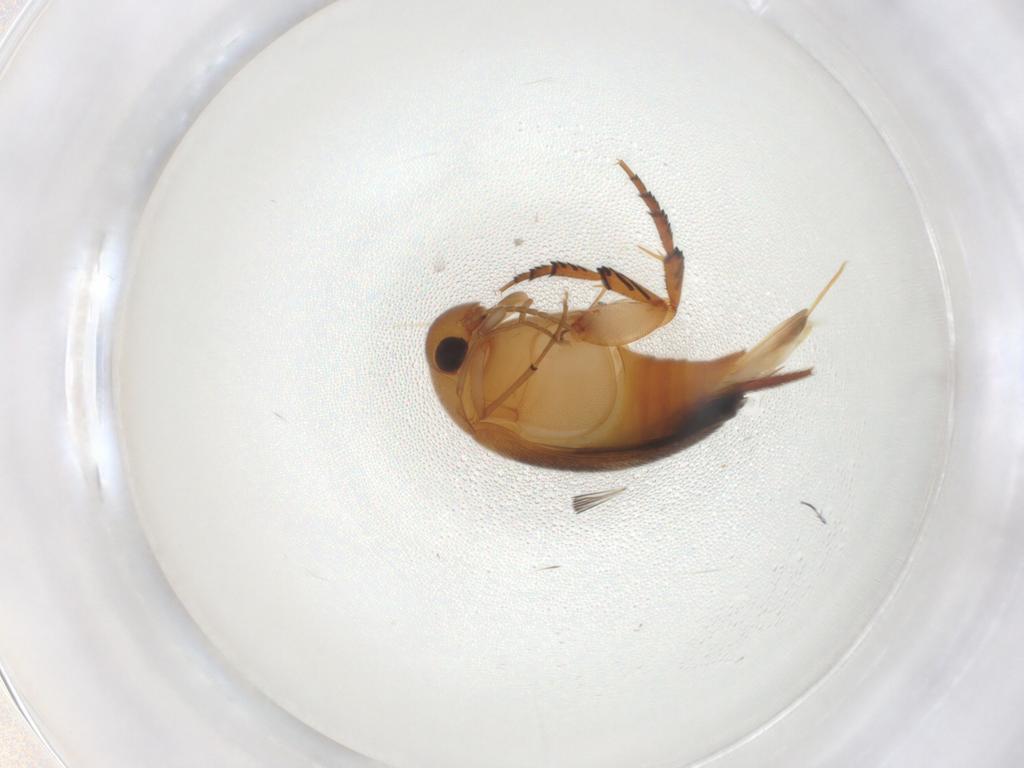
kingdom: Animalia
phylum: Arthropoda
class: Insecta
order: Coleoptera
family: Mordellidae
